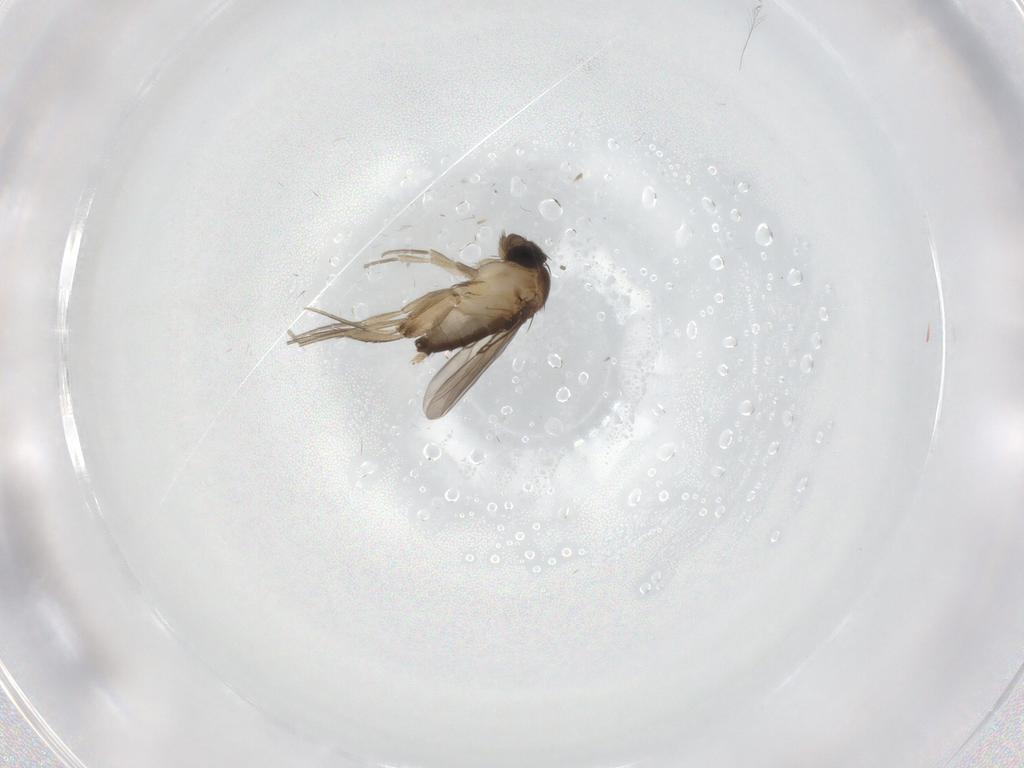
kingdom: Animalia
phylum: Arthropoda
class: Insecta
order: Diptera
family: Phoridae
